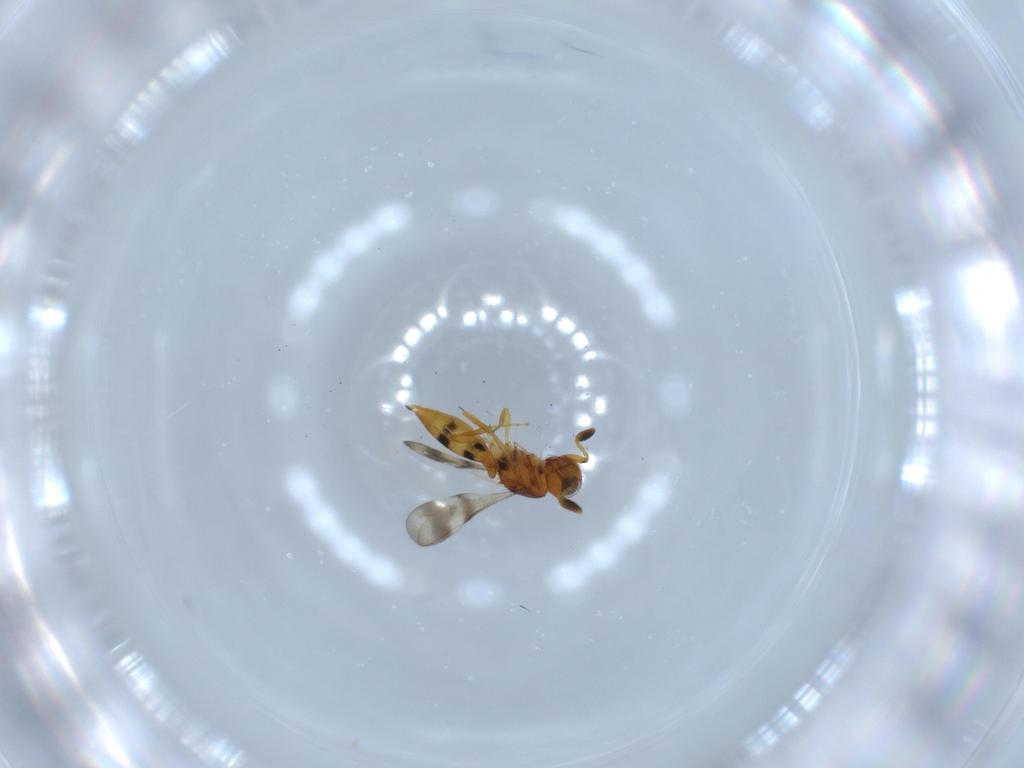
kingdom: Animalia
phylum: Arthropoda
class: Insecta
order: Hymenoptera
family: Scelionidae
